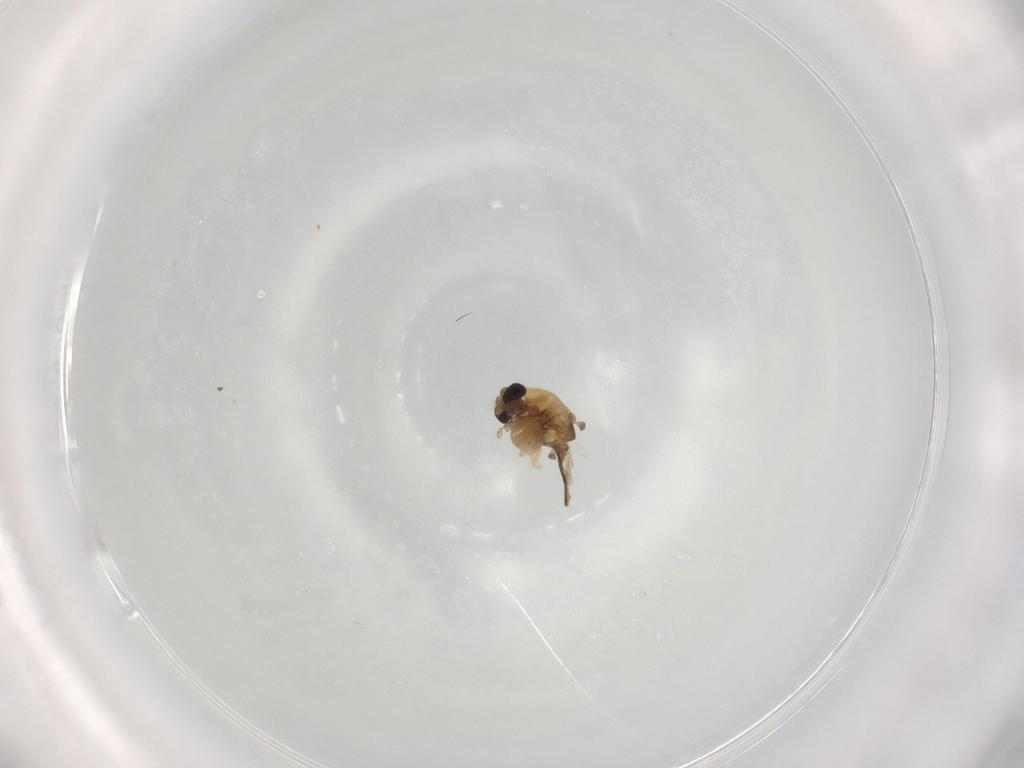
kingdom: Animalia
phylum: Arthropoda
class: Insecta
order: Diptera
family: Chironomidae
